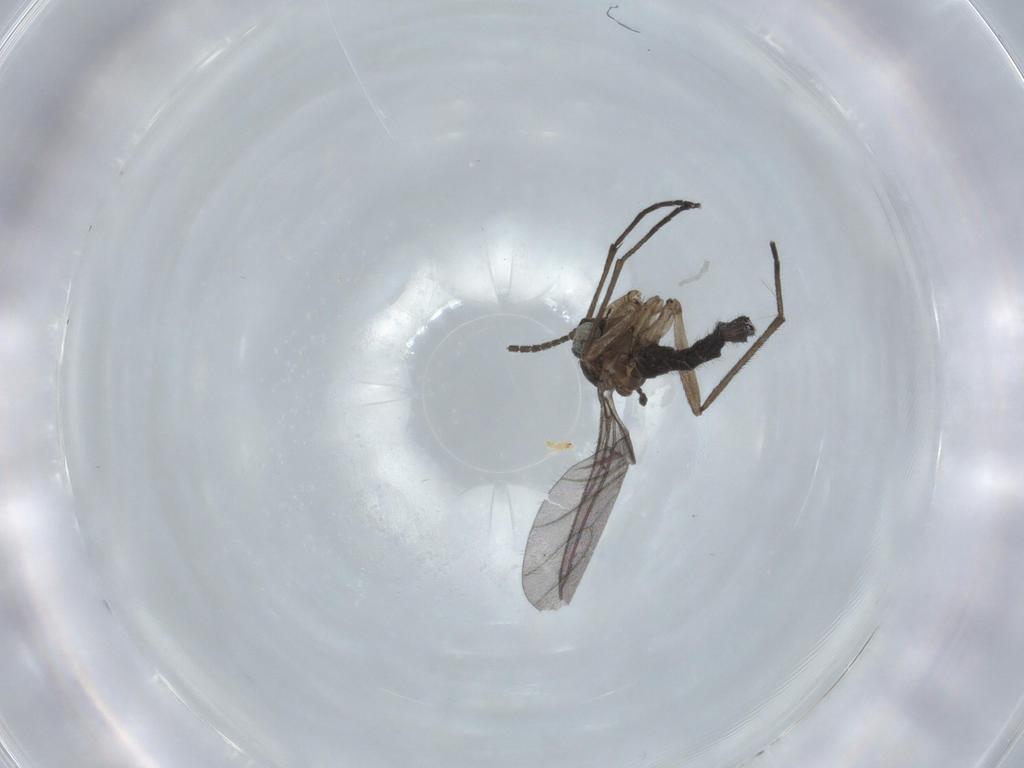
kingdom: Animalia
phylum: Arthropoda
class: Insecta
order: Diptera
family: Sciaridae
